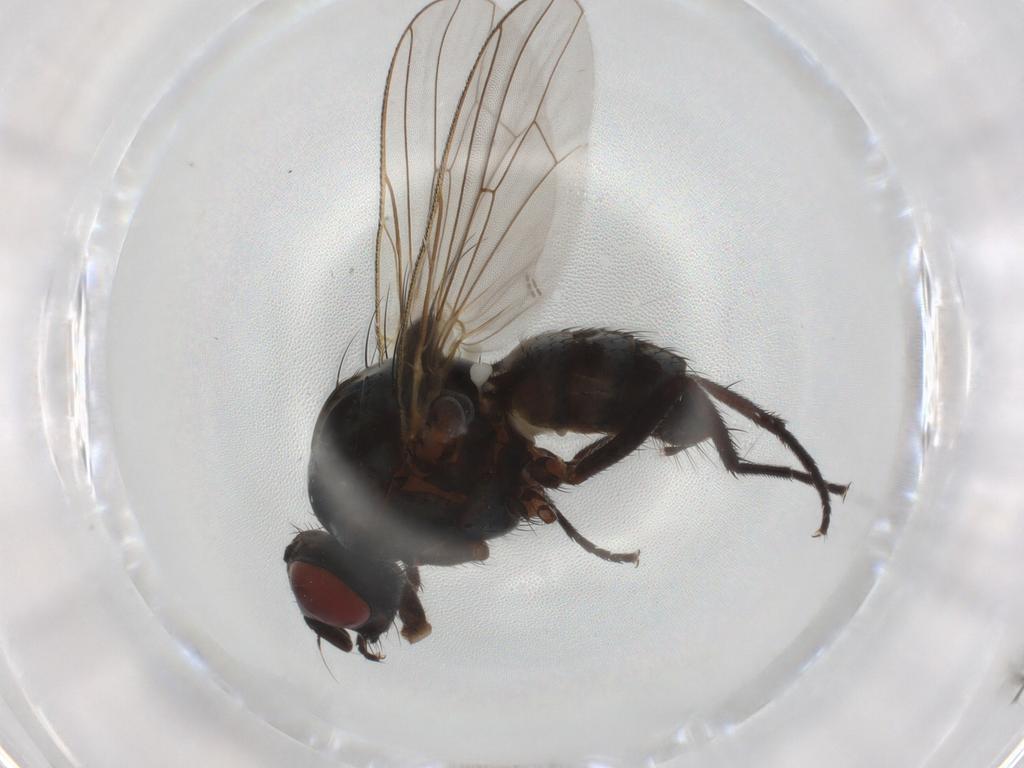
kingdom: Animalia
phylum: Arthropoda
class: Insecta
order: Diptera
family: Anthomyiidae
